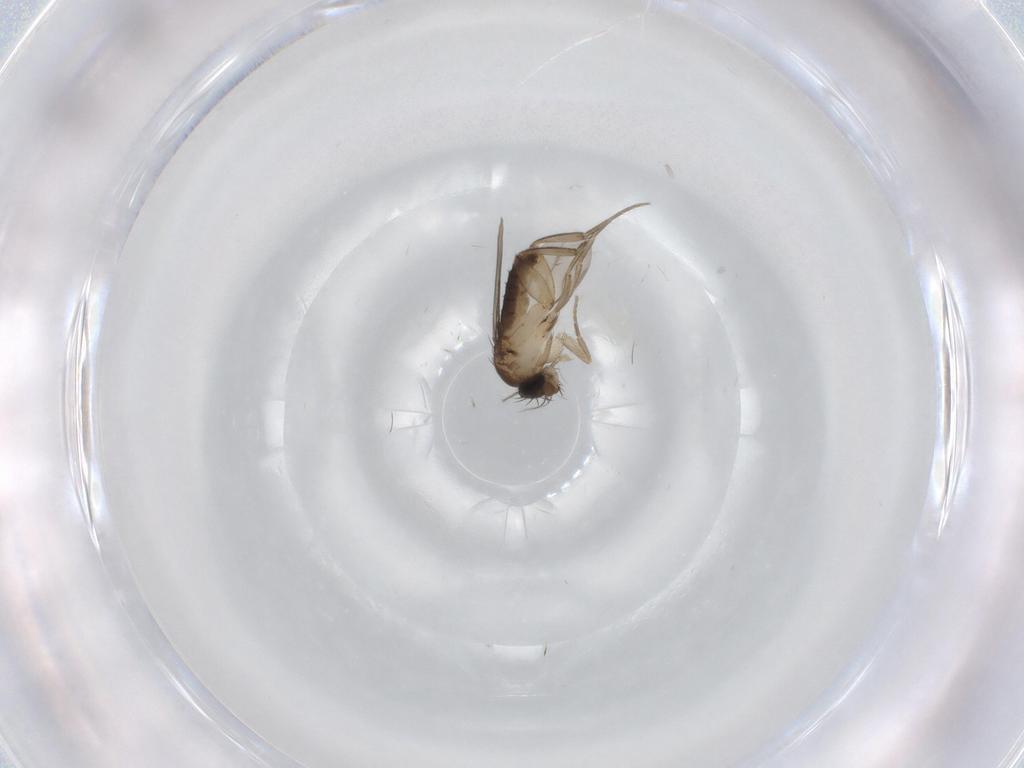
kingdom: Animalia
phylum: Arthropoda
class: Insecta
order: Diptera
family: Phoridae
